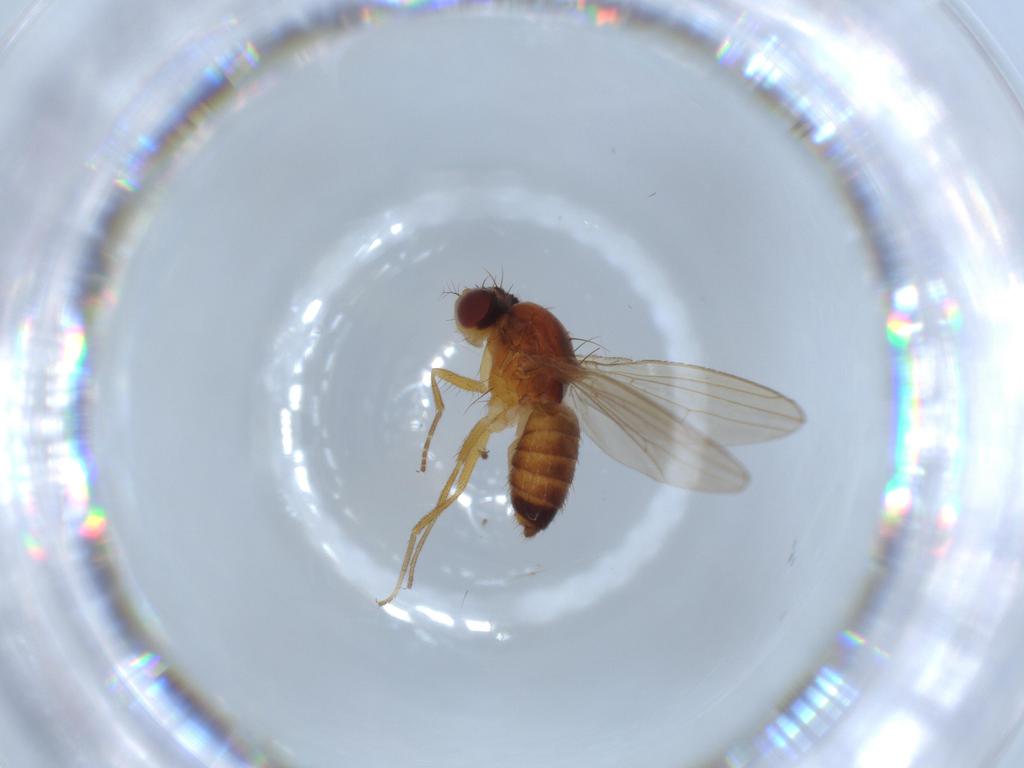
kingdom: Animalia
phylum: Arthropoda
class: Insecta
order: Diptera
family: Drosophilidae
